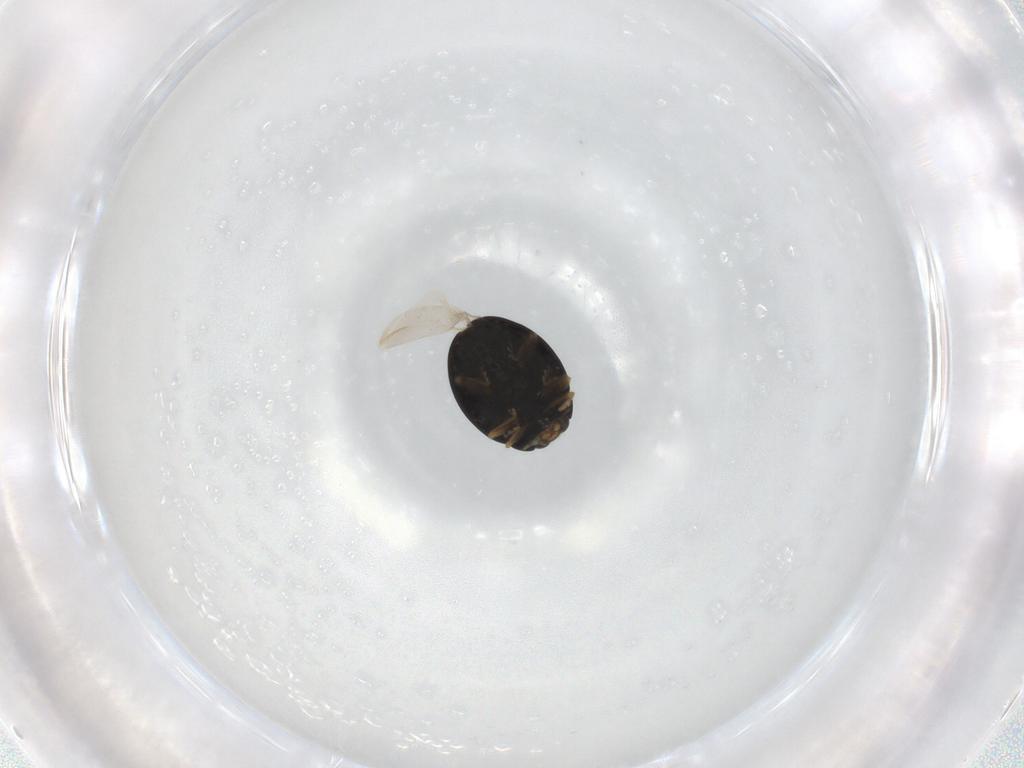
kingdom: Animalia
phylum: Arthropoda
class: Insecta
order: Coleoptera
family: Coccinellidae
